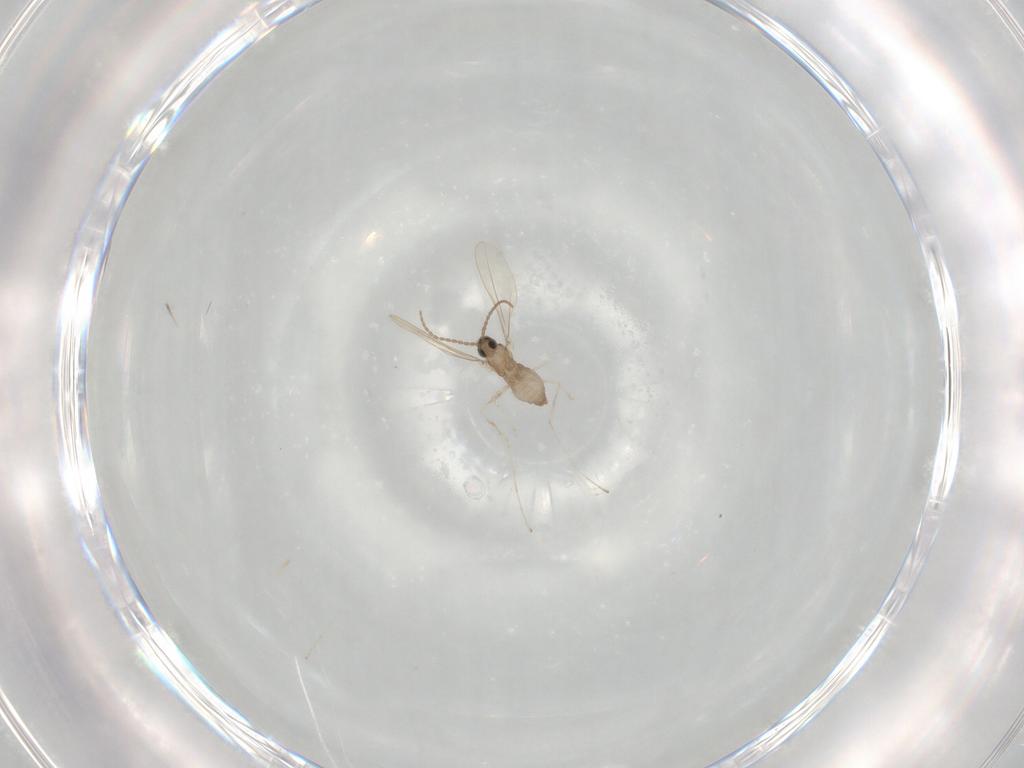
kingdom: Animalia
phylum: Arthropoda
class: Insecta
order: Diptera
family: Cecidomyiidae
